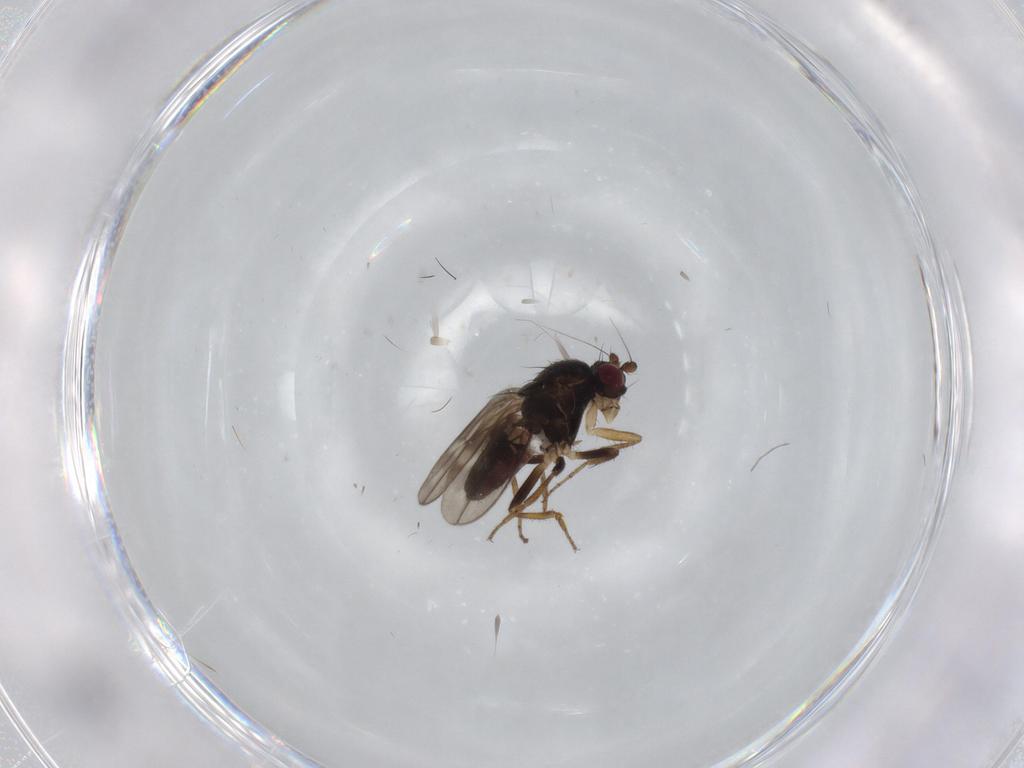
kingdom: Animalia
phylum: Arthropoda
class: Insecta
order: Diptera
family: Sphaeroceridae
